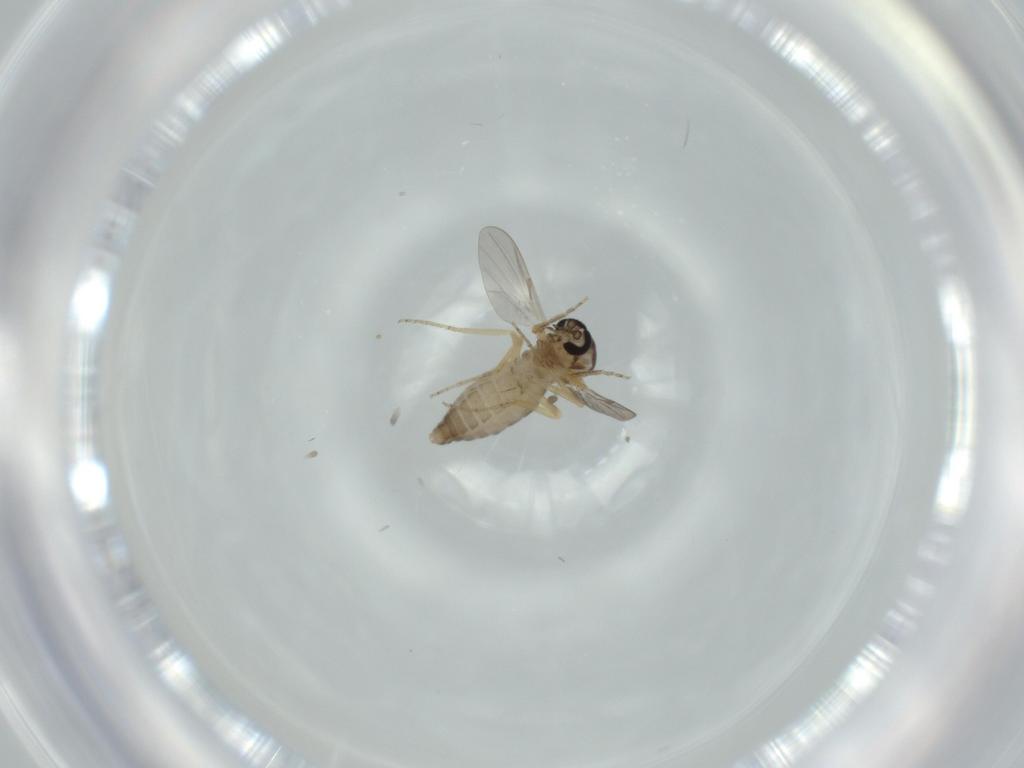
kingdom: Animalia
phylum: Arthropoda
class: Insecta
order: Diptera
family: Ceratopogonidae
